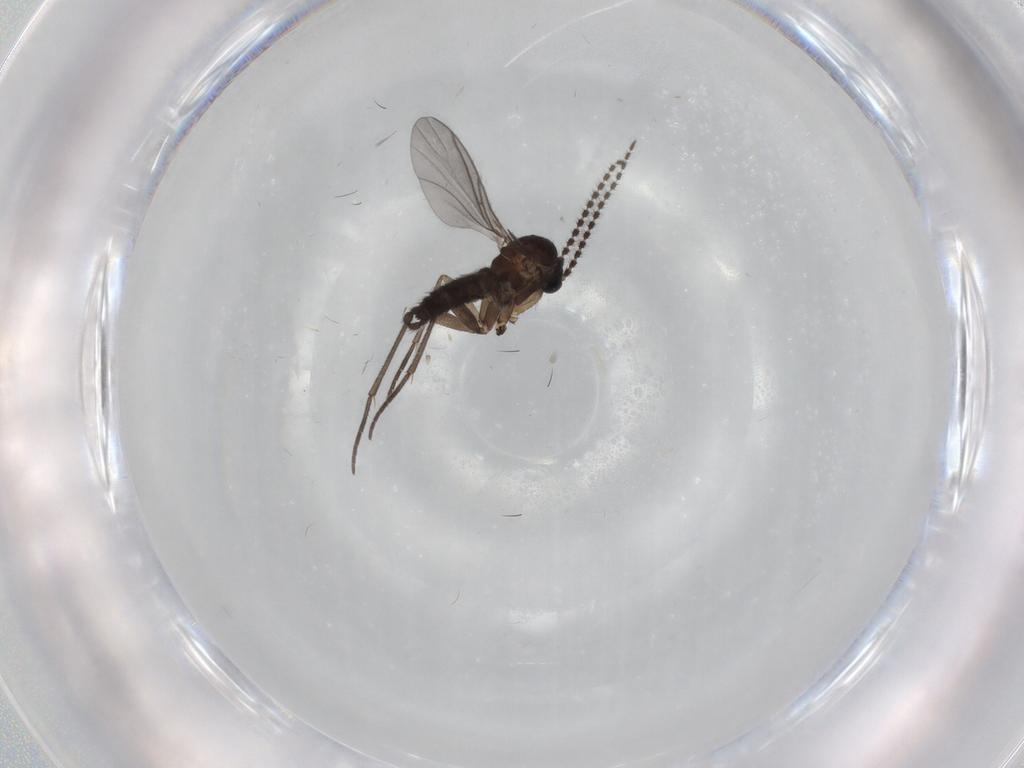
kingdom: Animalia
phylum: Arthropoda
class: Insecta
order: Diptera
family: Sciaridae
